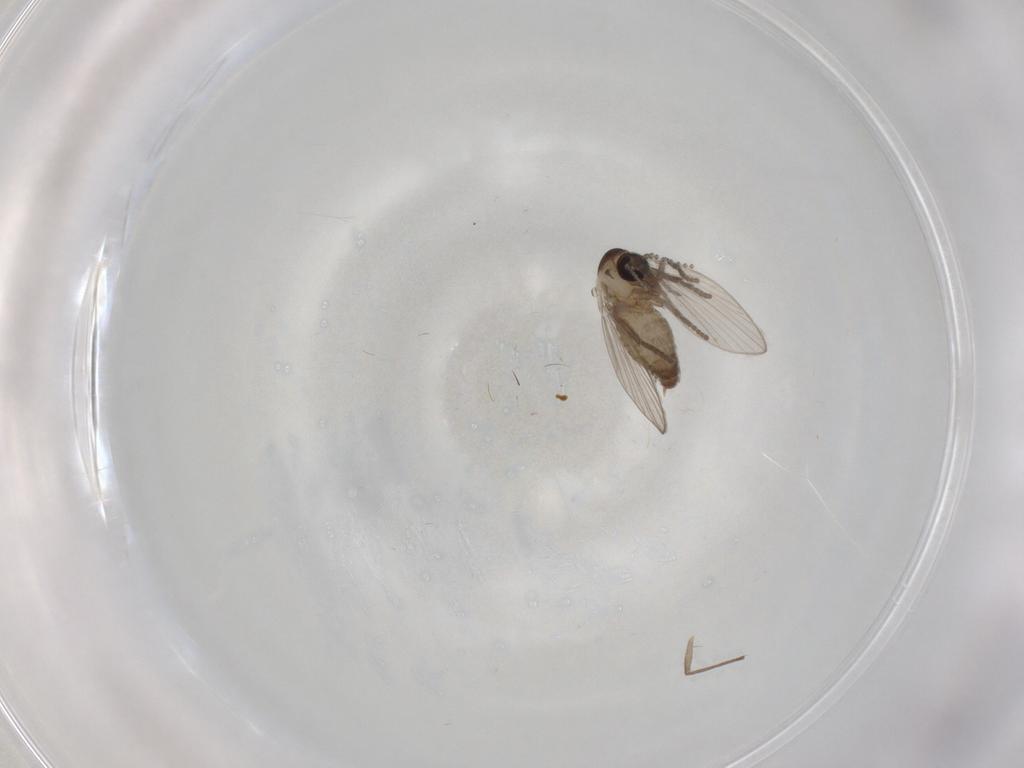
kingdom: Animalia
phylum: Arthropoda
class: Insecta
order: Diptera
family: Psychodidae
